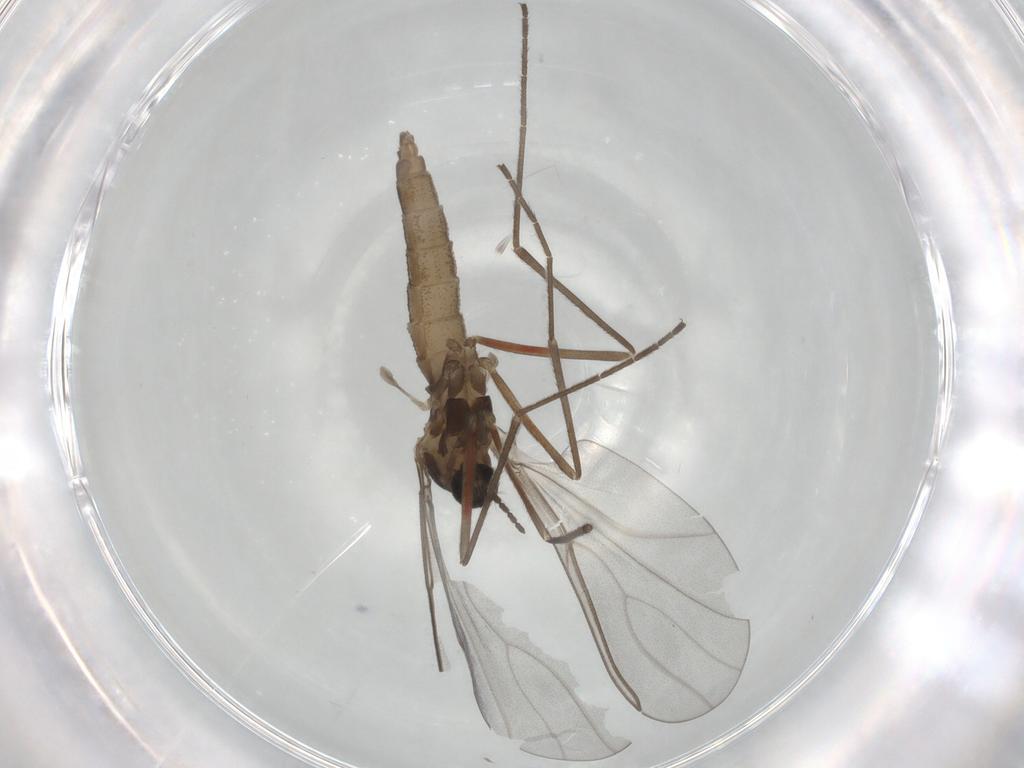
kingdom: Animalia
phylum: Arthropoda
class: Insecta
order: Diptera
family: Cecidomyiidae
